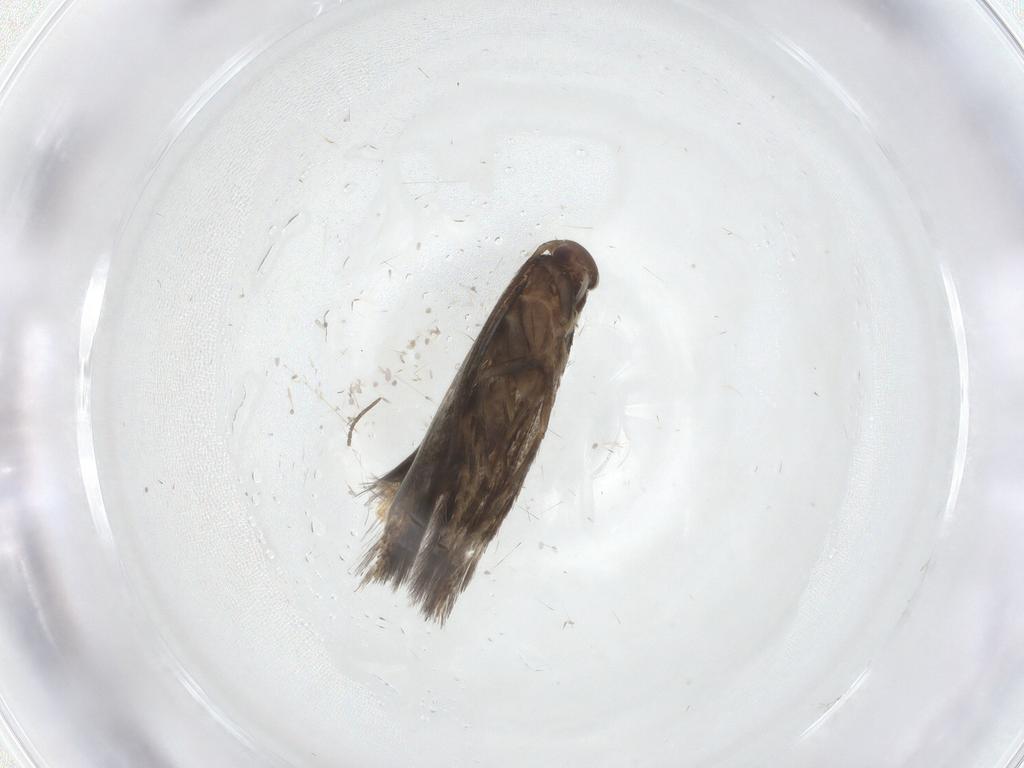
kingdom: Animalia
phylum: Arthropoda
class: Insecta
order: Lepidoptera
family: Elachistidae
